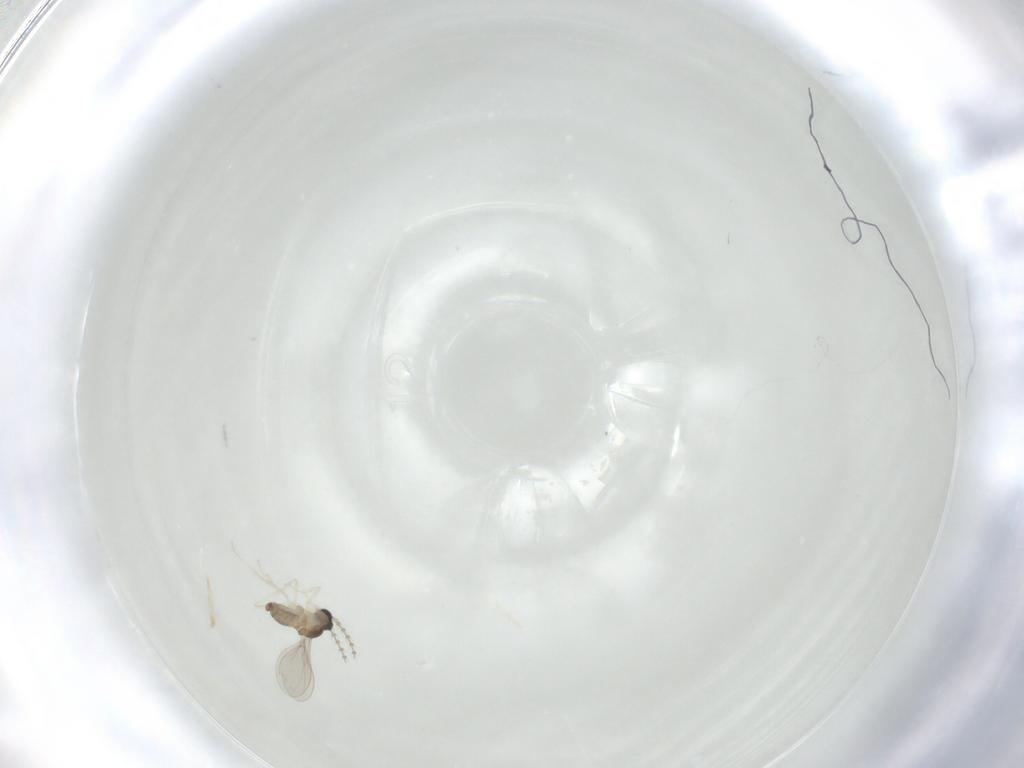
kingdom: Animalia
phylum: Arthropoda
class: Insecta
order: Diptera
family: Cecidomyiidae
